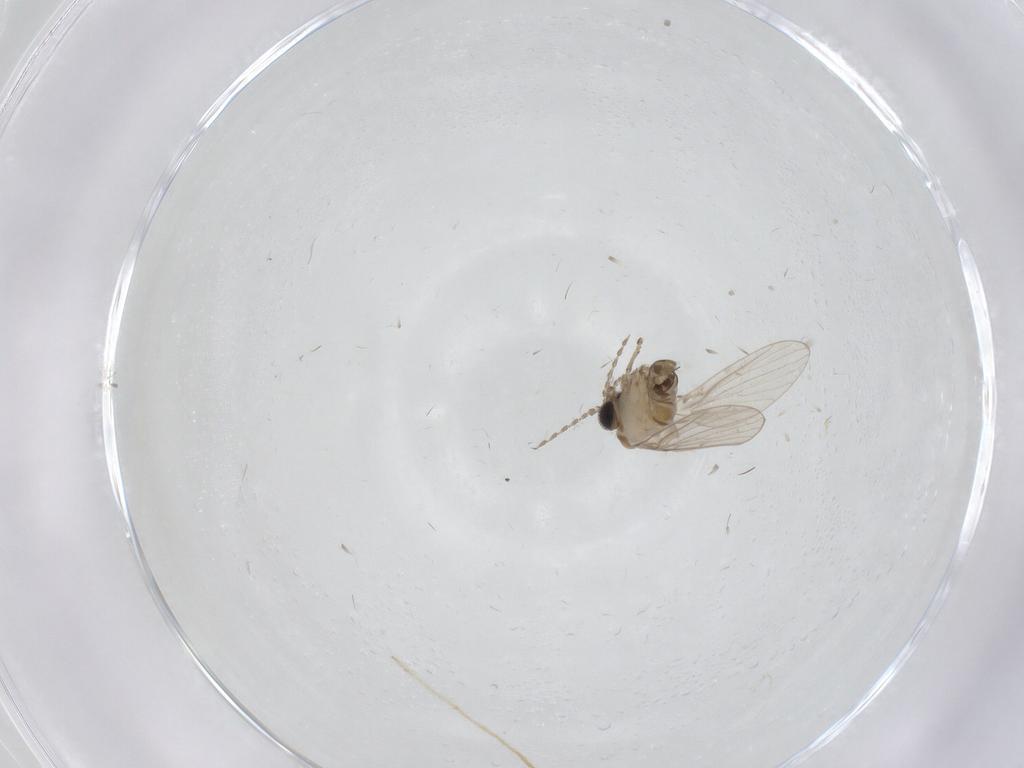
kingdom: Animalia
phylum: Arthropoda
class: Insecta
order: Diptera
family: Psychodidae
